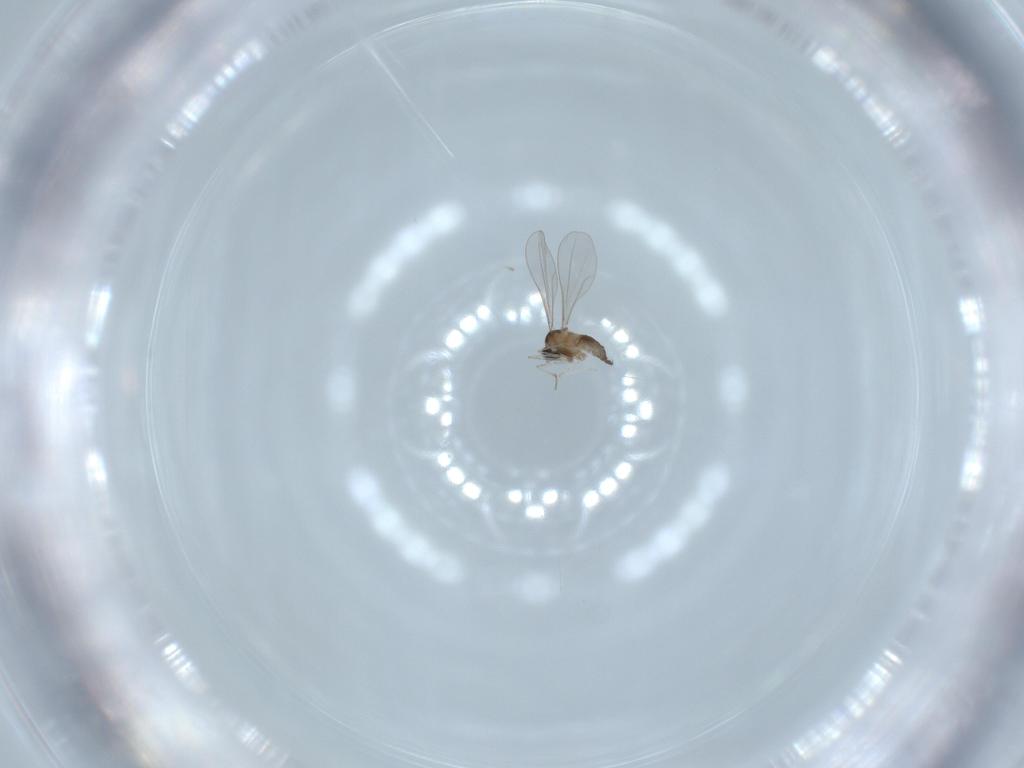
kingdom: Animalia
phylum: Arthropoda
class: Insecta
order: Diptera
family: Cecidomyiidae
